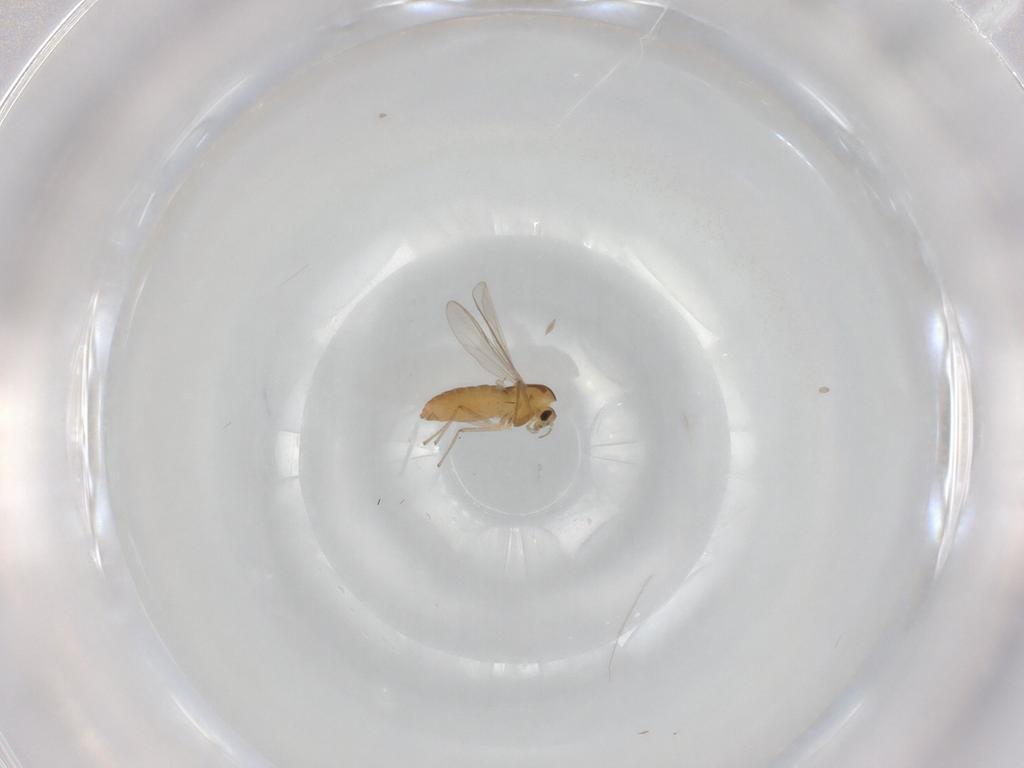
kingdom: Animalia
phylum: Arthropoda
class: Insecta
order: Diptera
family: Chironomidae
